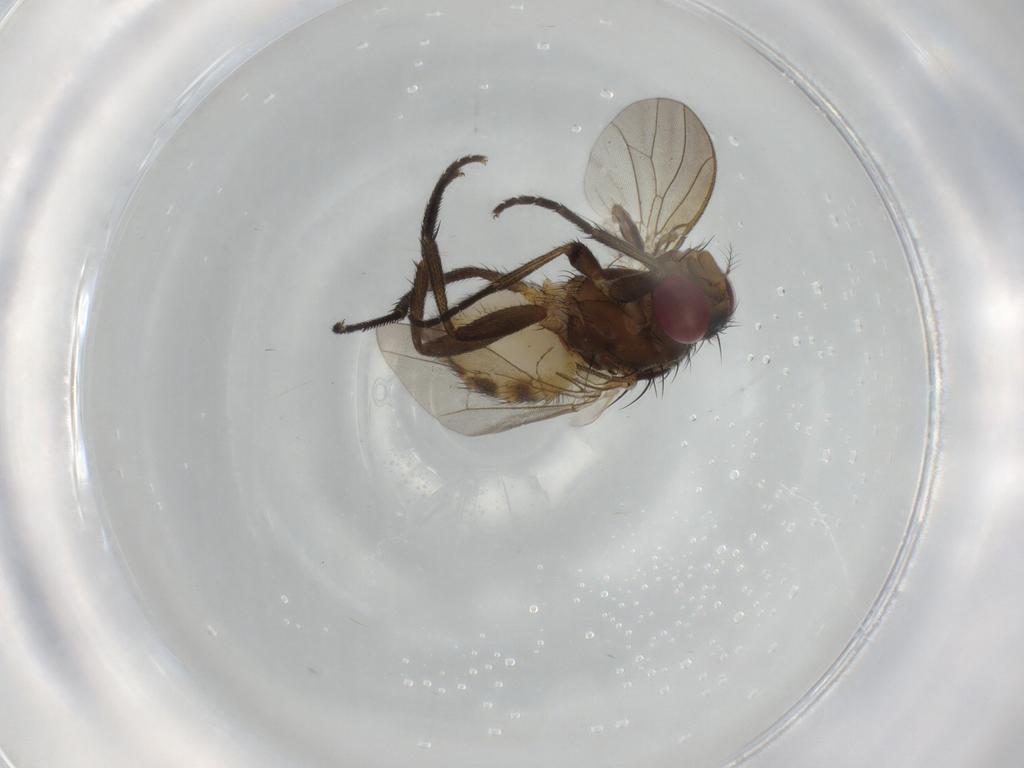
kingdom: Animalia
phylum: Arthropoda
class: Insecta
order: Diptera
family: Anthomyiidae
